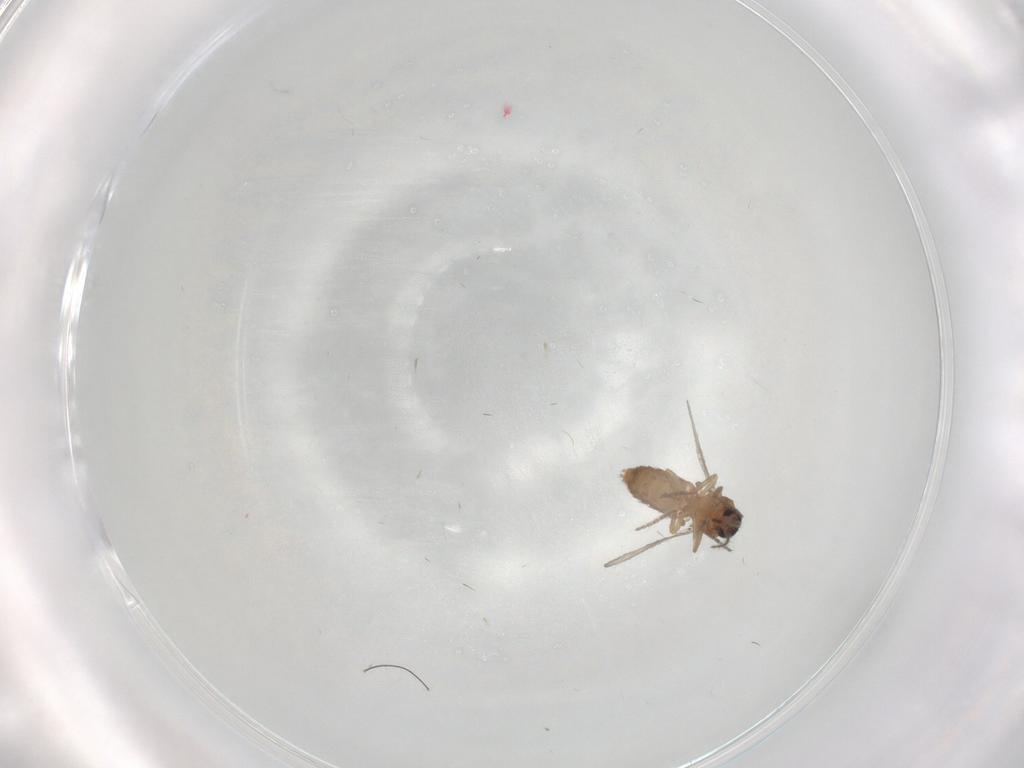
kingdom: Animalia
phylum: Arthropoda
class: Insecta
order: Diptera
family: Ceratopogonidae
